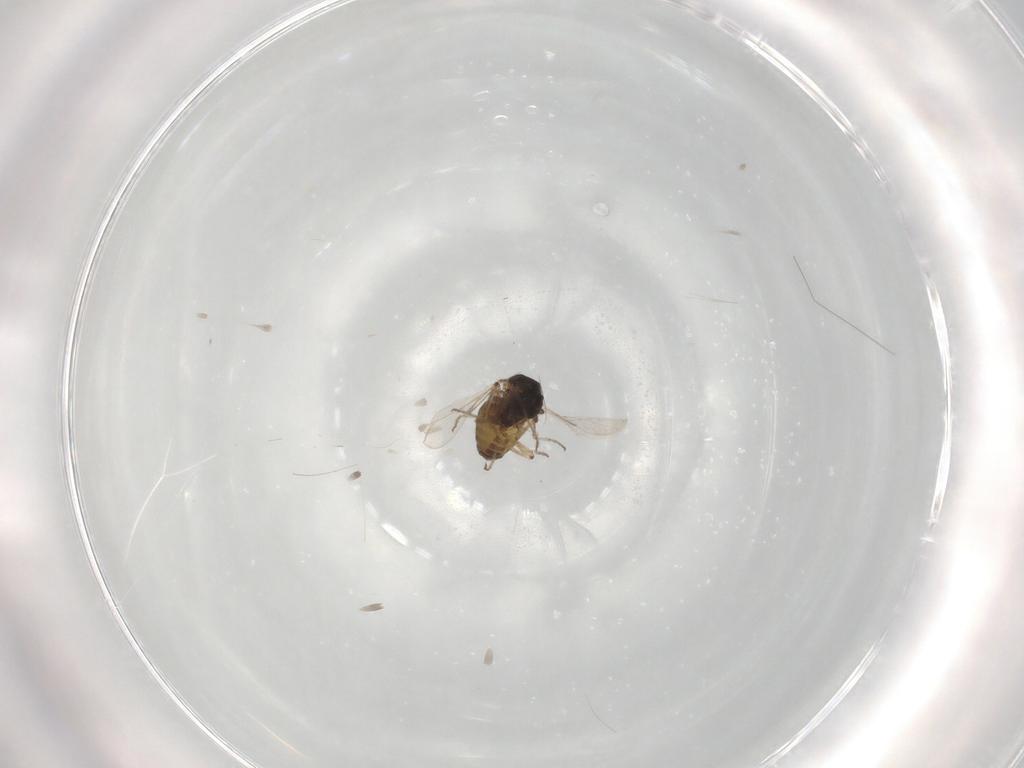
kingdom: Animalia
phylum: Arthropoda
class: Insecta
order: Diptera
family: Ceratopogonidae
